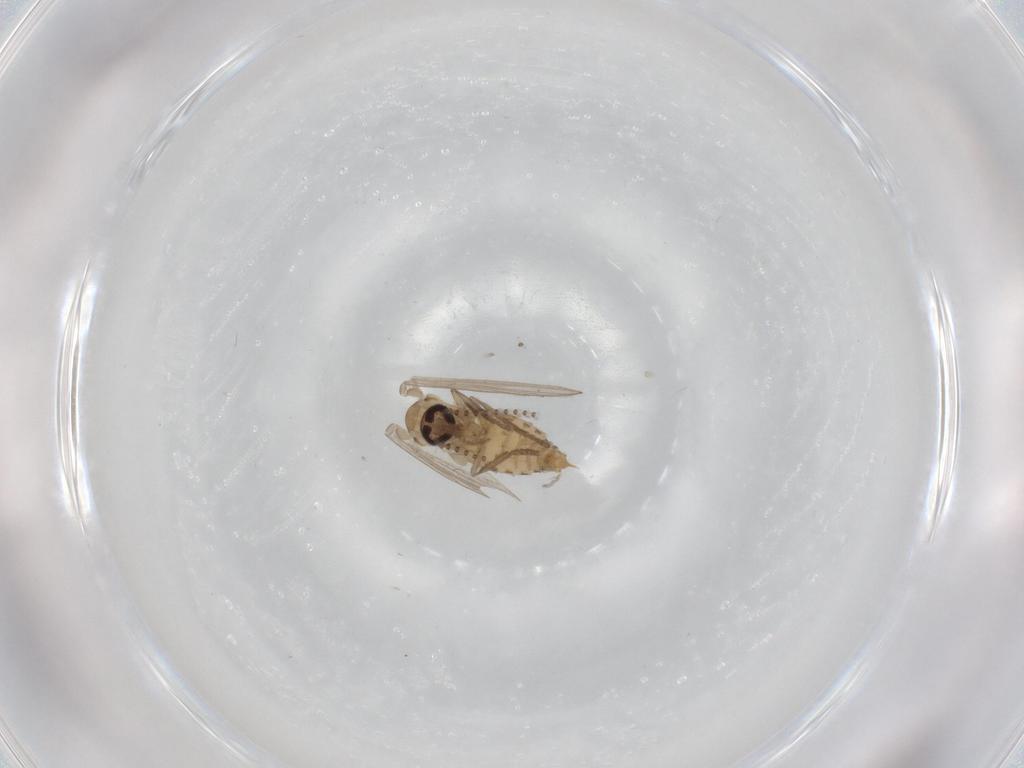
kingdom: Animalia
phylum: Arthropoda
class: Insecta
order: Diptera
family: Psychodidae
